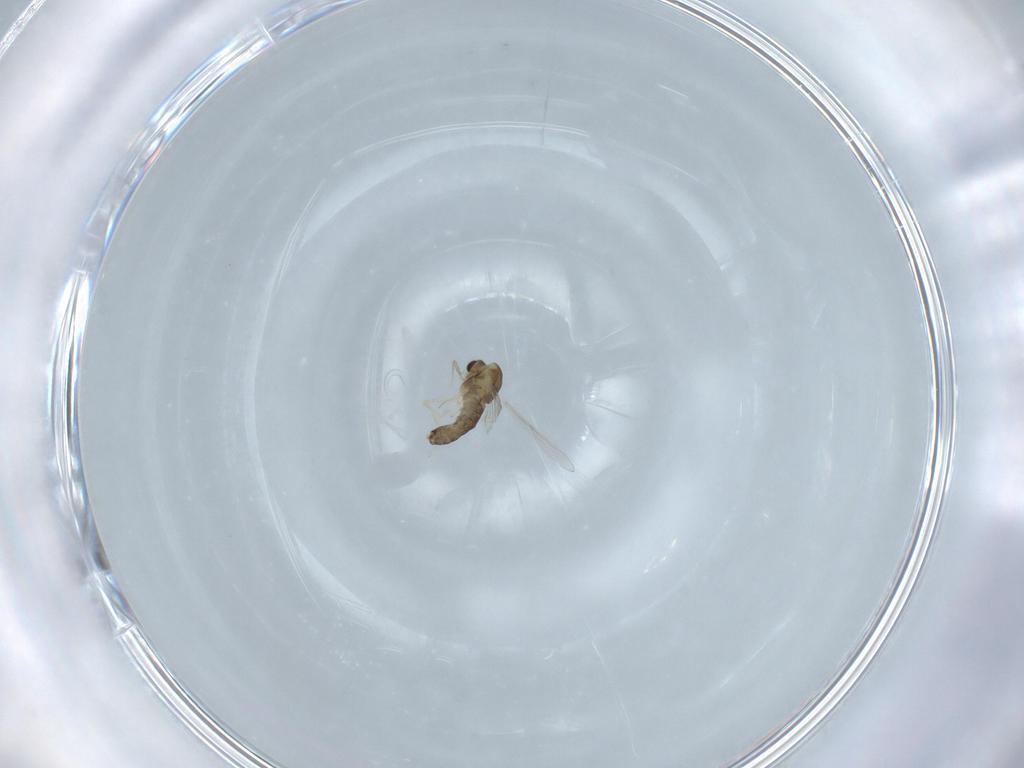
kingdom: Animalia
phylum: Arthropoda
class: Insecta
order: Diptera
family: Chironomidae
